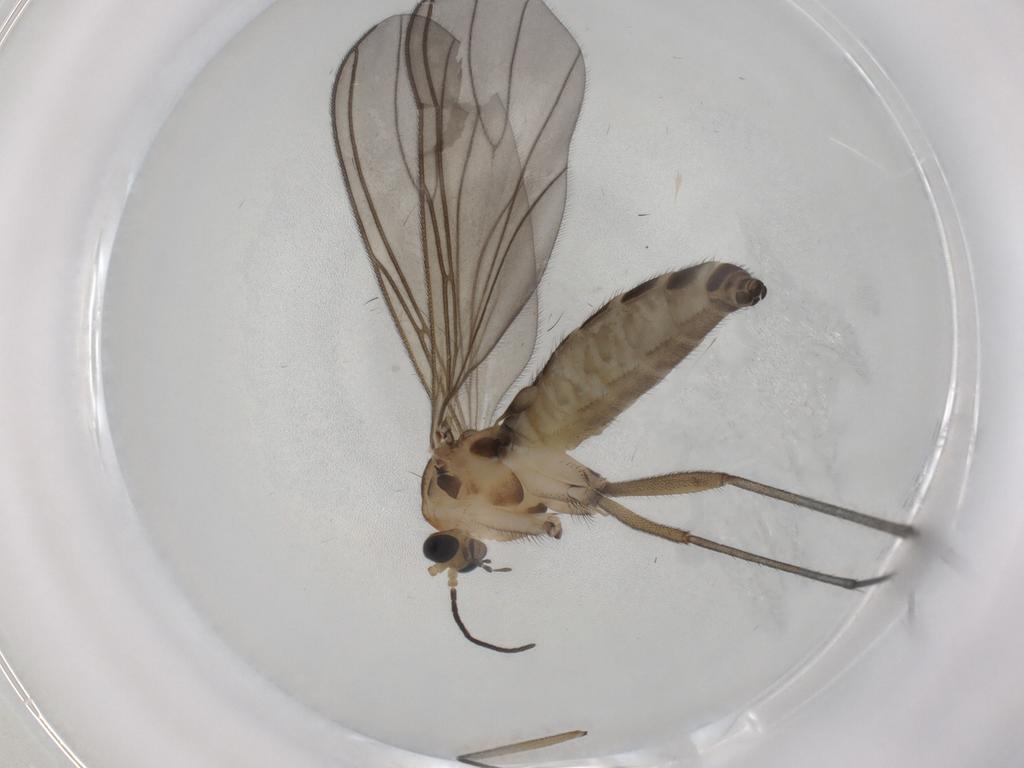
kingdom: Animalia
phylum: Arthropoda
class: Insecta
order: Diptera
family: Sciaridae
